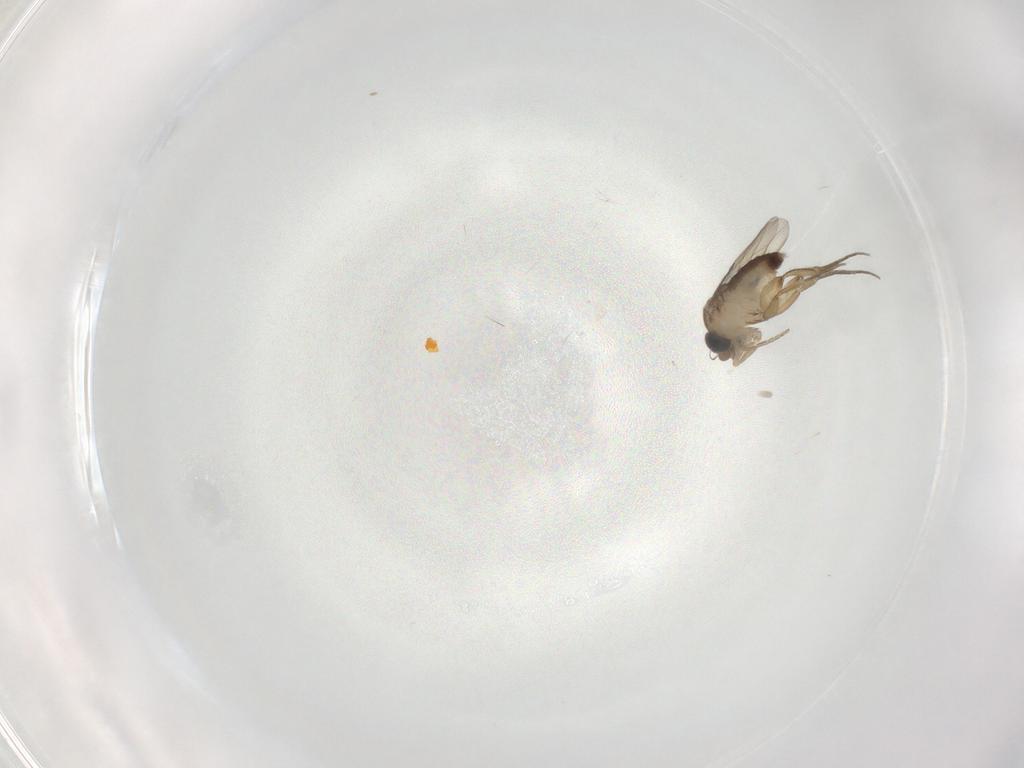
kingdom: Animalia
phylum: Arthropoda
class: Insecta
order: Diptera
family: Phoridae
